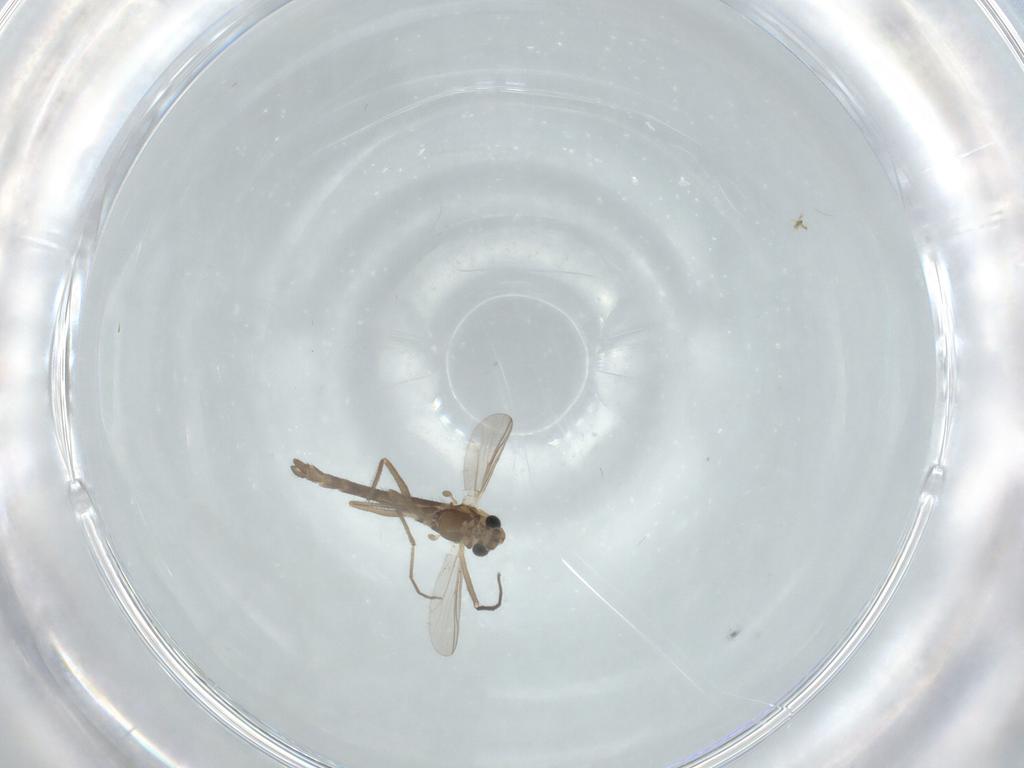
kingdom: Animalia
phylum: Arthropoda
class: Insecta
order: Diptera
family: Chironomidae
